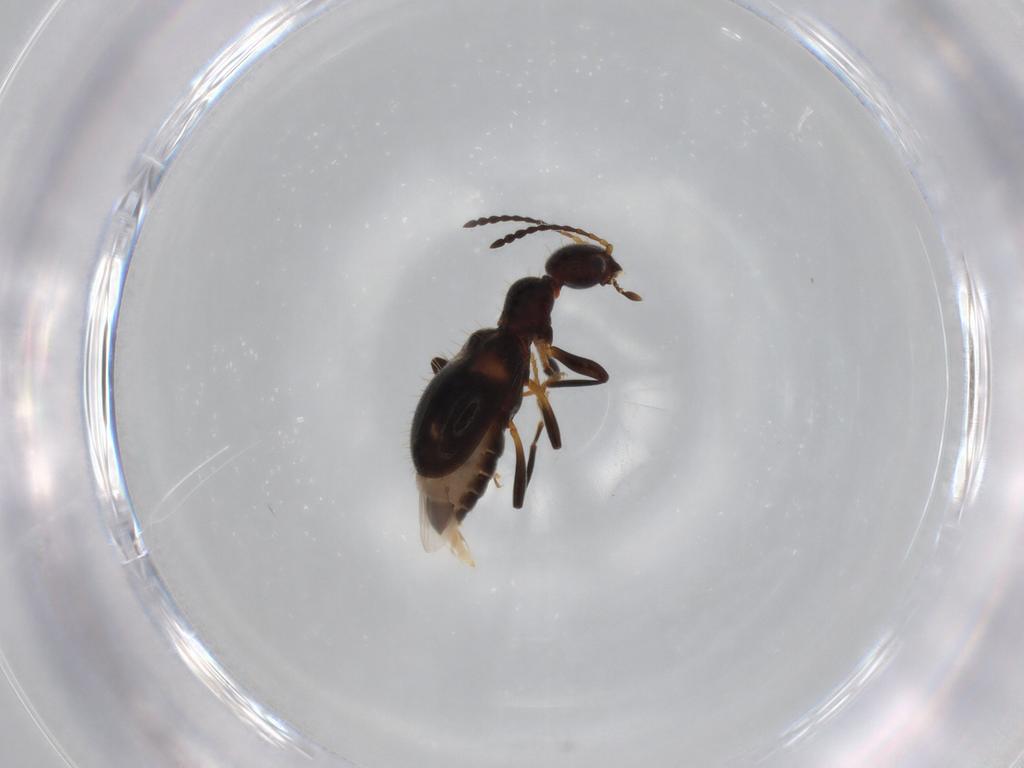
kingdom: Animalia
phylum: Arthropoda
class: Insecta
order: Coleoptera
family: Anthicidae
